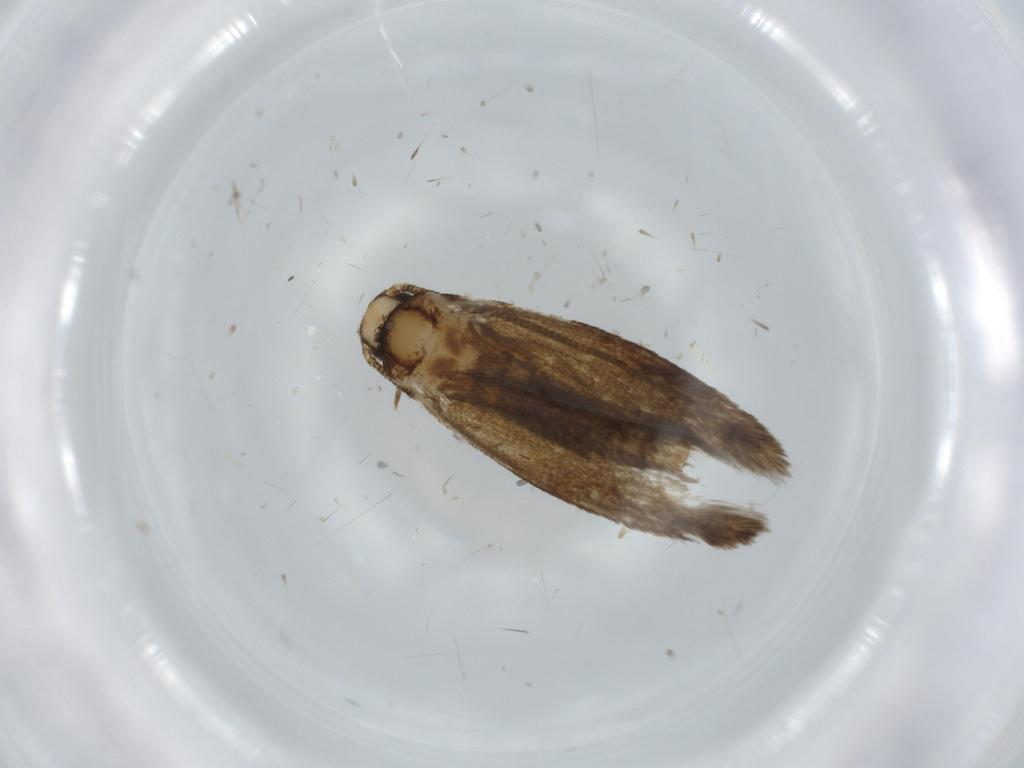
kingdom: Animalia
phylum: Arthropoda
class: Insecta
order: Lepidoptera
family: Tineidae
